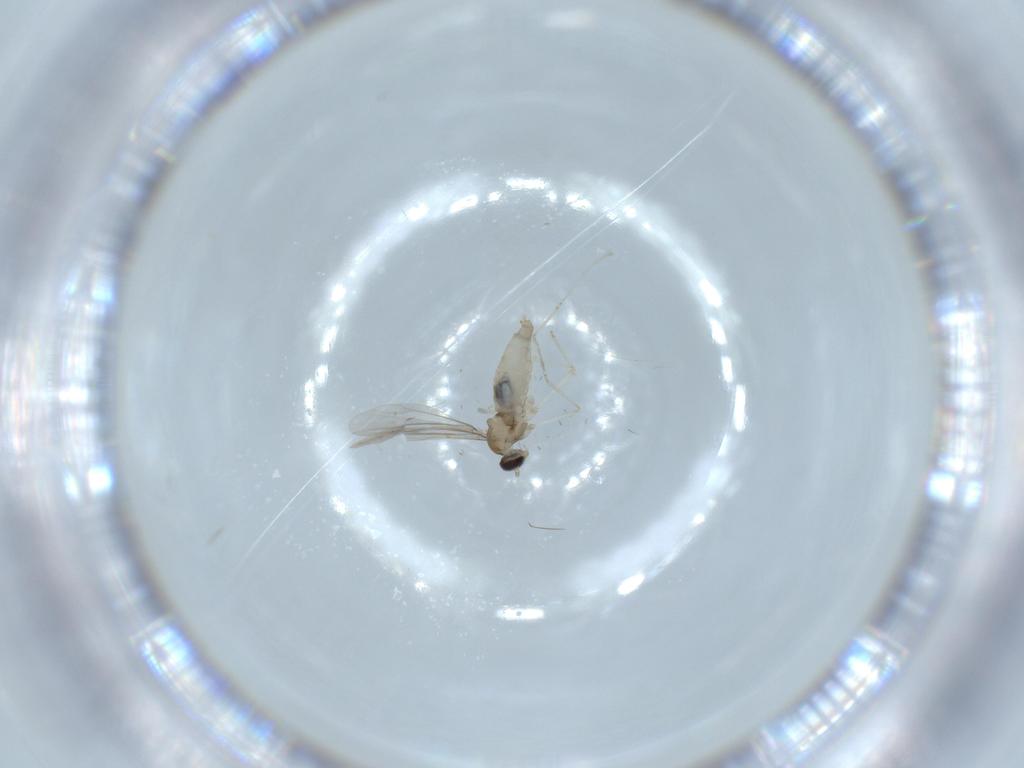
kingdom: Animalia
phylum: Arthropoda
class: Insecta
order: Diptera
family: Cecidomyiidae
